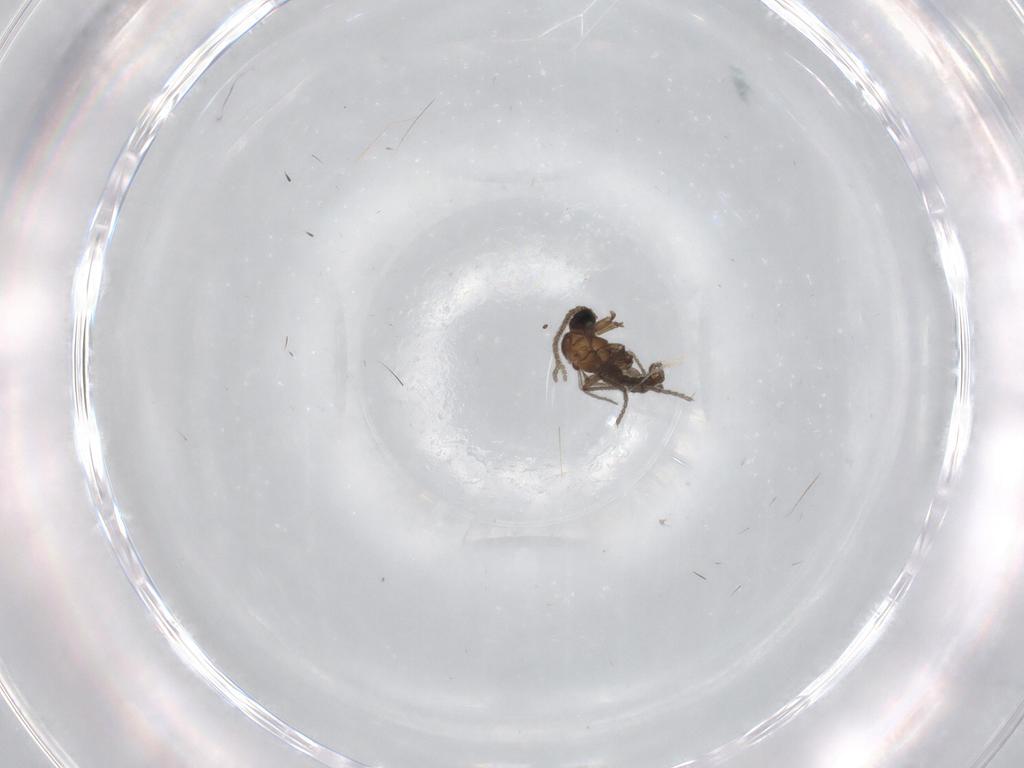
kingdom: Animalia
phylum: Arthropoda
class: Insecta
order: Diptera
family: Sciaridae
